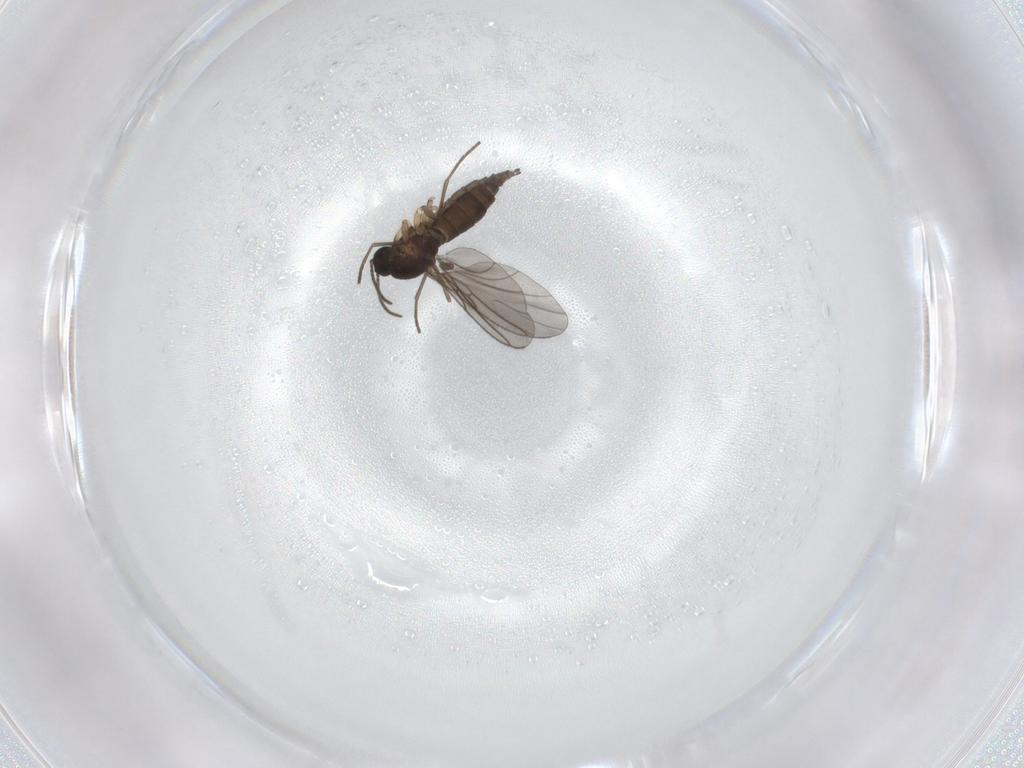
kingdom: Animalia
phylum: Arthropoda
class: Insecta
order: Diptera
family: Sciaridae
